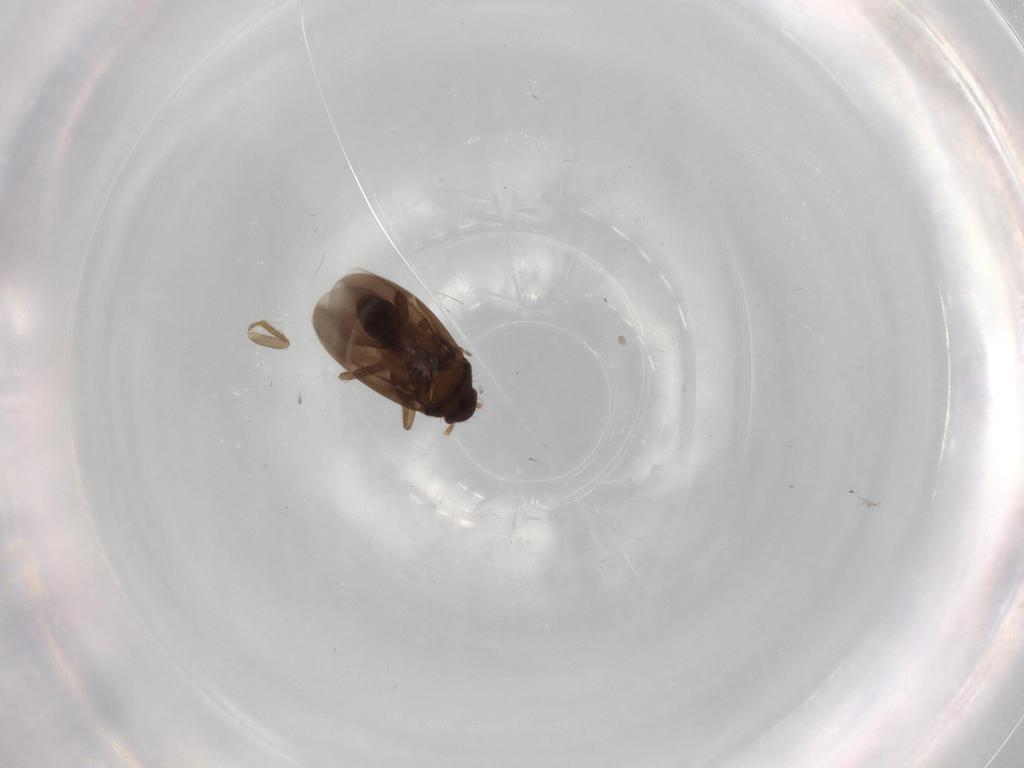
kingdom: Animalia
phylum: Arthropoda
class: Insecta
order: Hemiptera
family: Ceratocombidae
